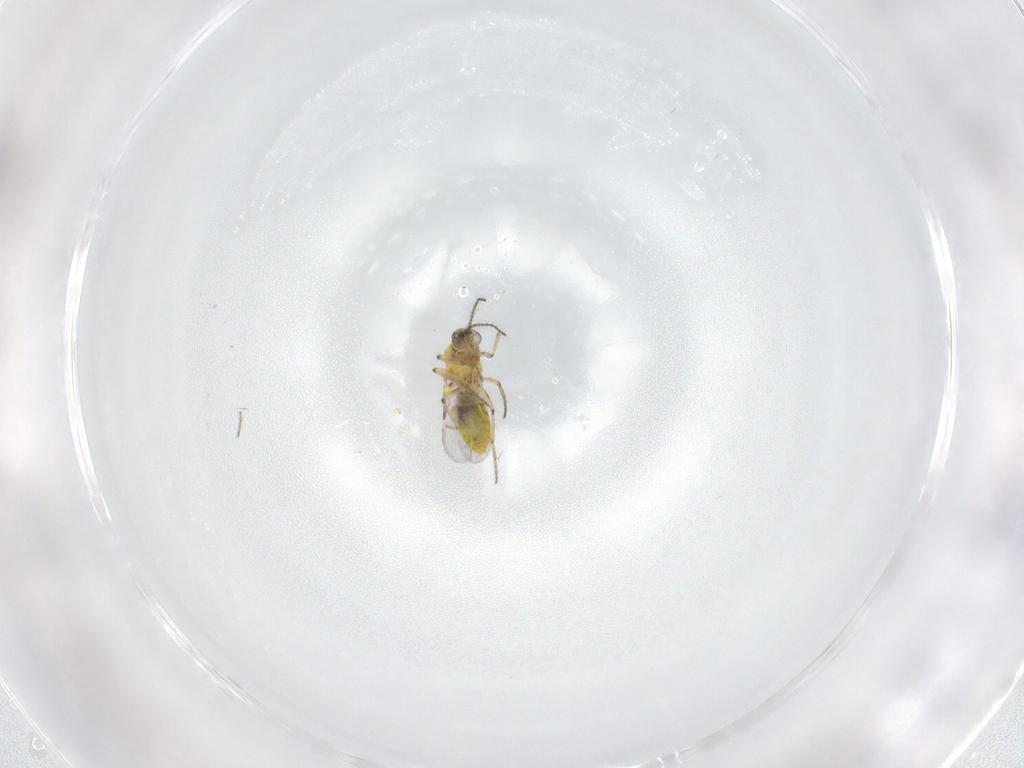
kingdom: Animalia
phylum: Arthropoda
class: Insecta
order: Diptera
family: Ceratopogonidae
